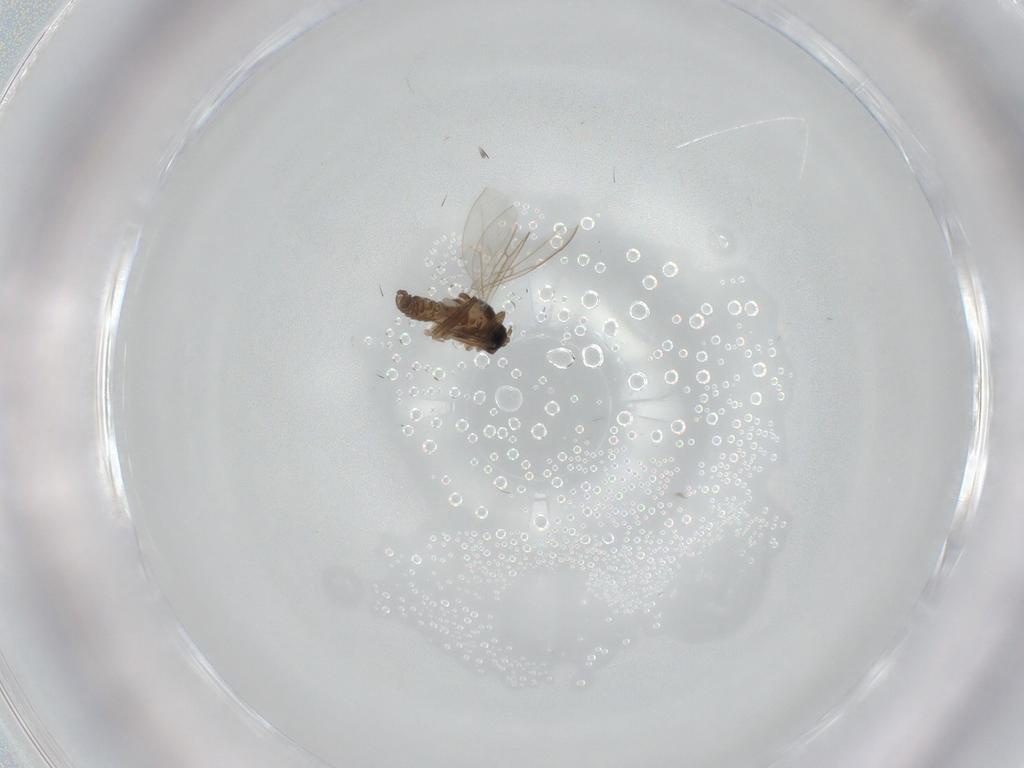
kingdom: Animalia
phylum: Arthropoda
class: Insecta
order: Diptera
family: Cecidomyiidae
